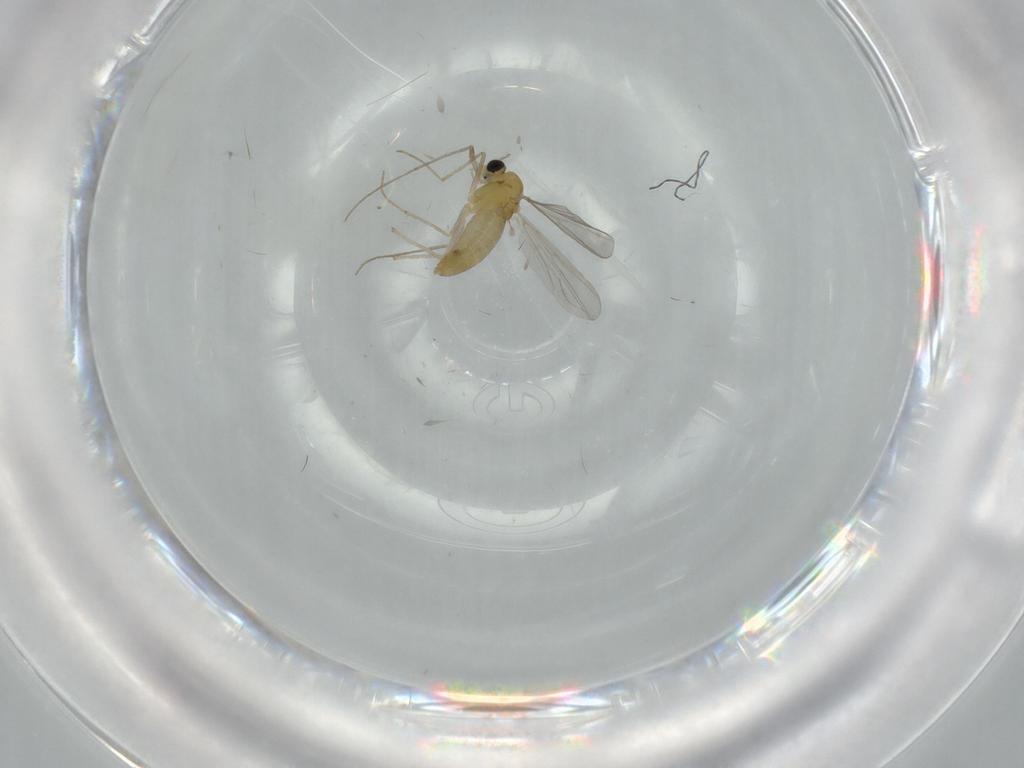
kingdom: Animalia
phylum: Arthropoda
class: Insecta
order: Diptera
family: Chironomidae
